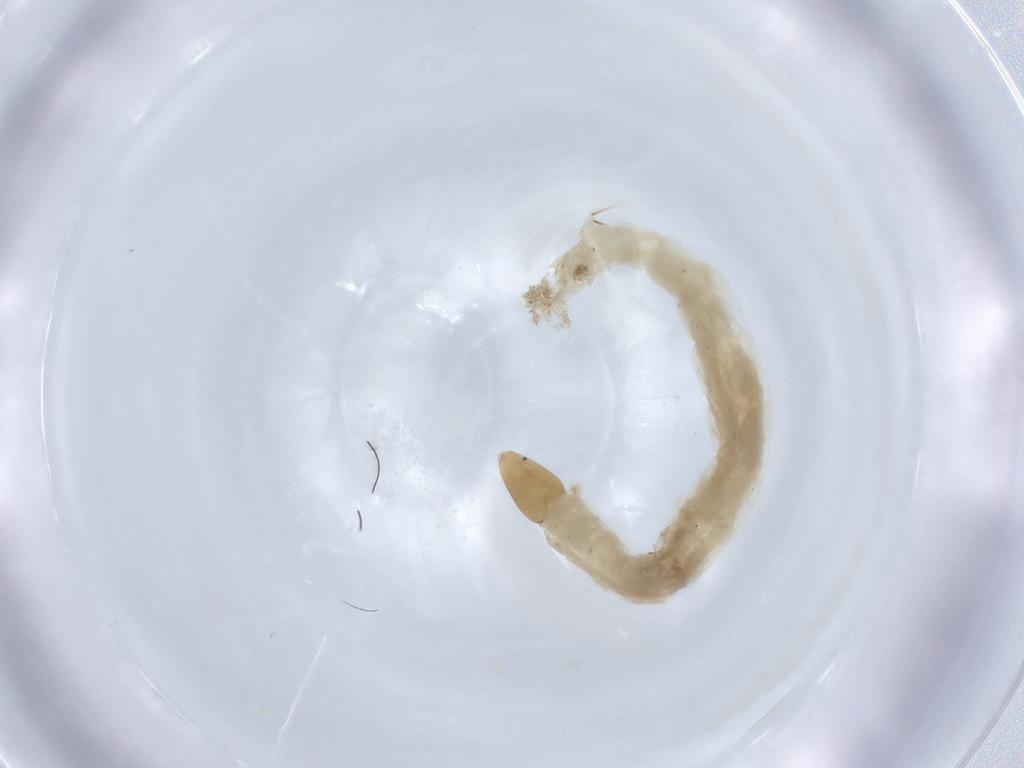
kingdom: Animalia
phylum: Arthropoda
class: Insecta
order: Diptera
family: Chironomidae
